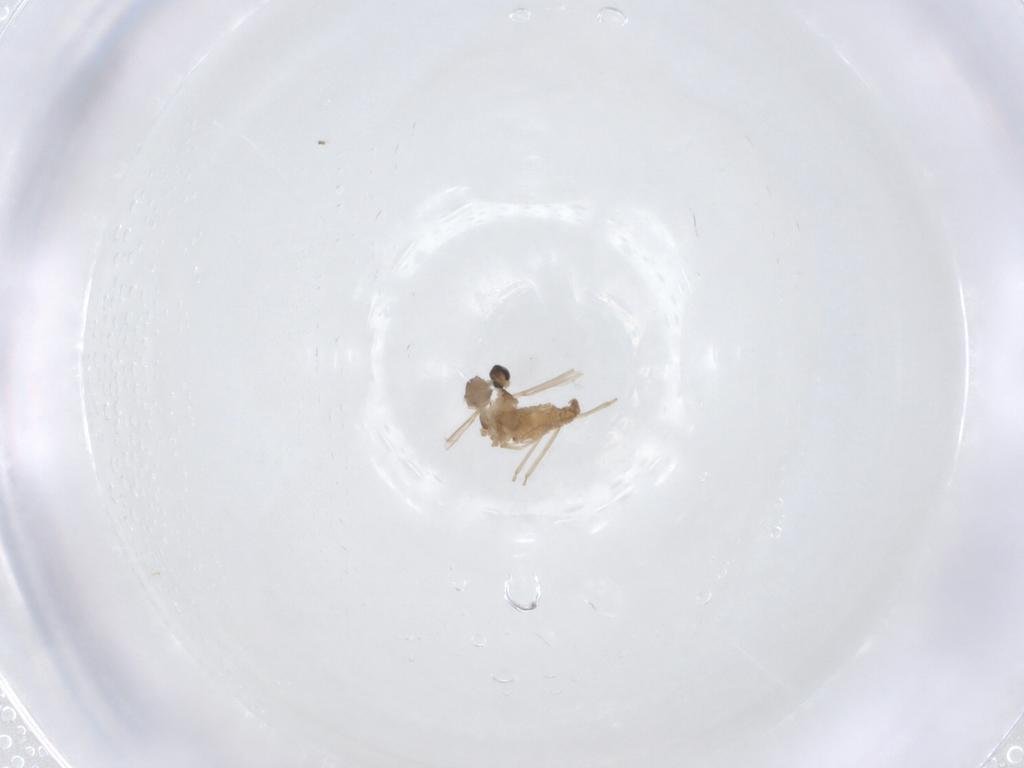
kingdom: Animalia
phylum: Arthropoda
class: Insecta
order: Diptera
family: Cecidomyiidae
